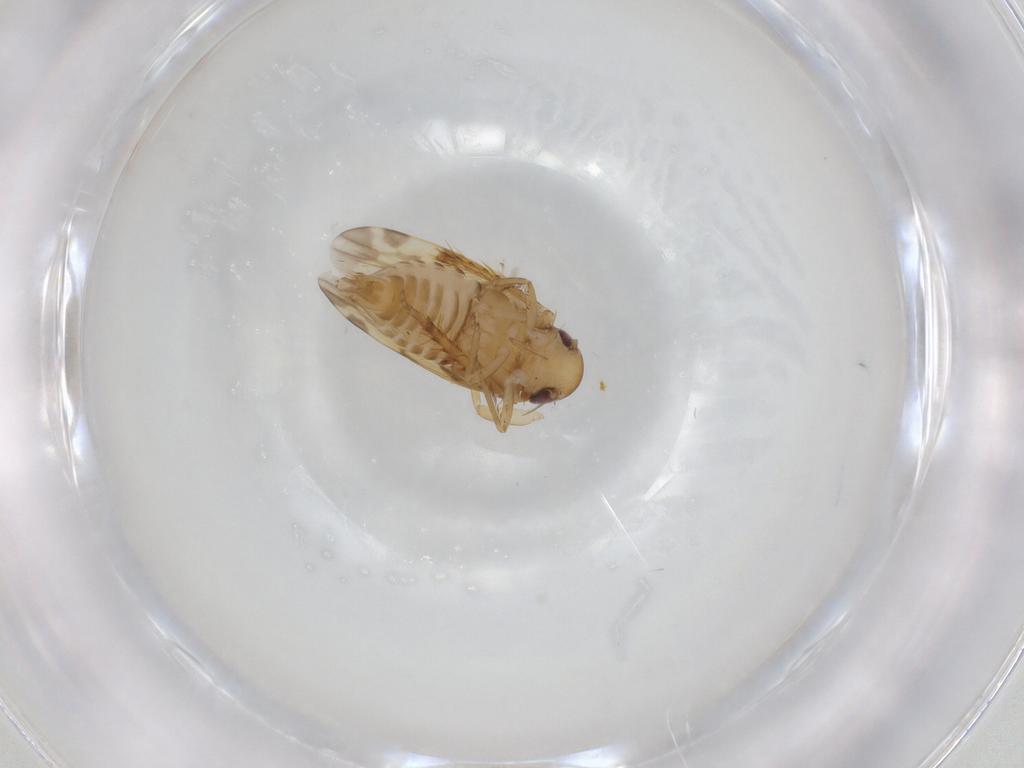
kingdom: Animalia
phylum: Arthropoda
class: Insecta
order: Hemiptera
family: Cicadellidae
